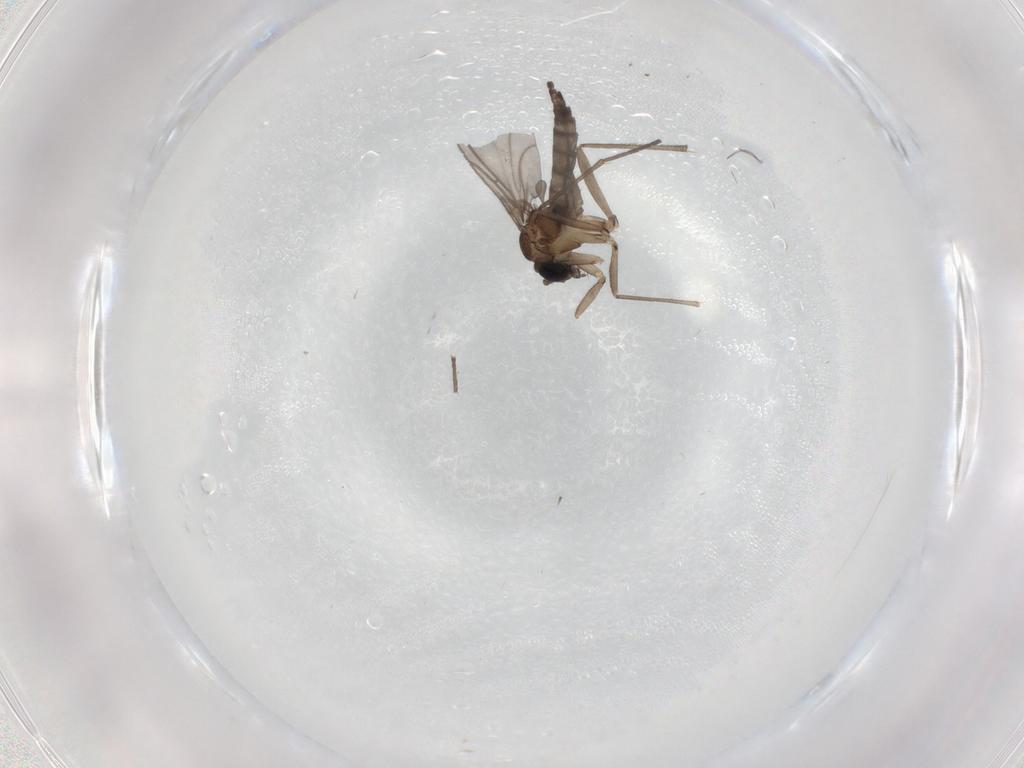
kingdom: Animalia
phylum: Arthropoda
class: Insecta
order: Diptera
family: Sciaridae
